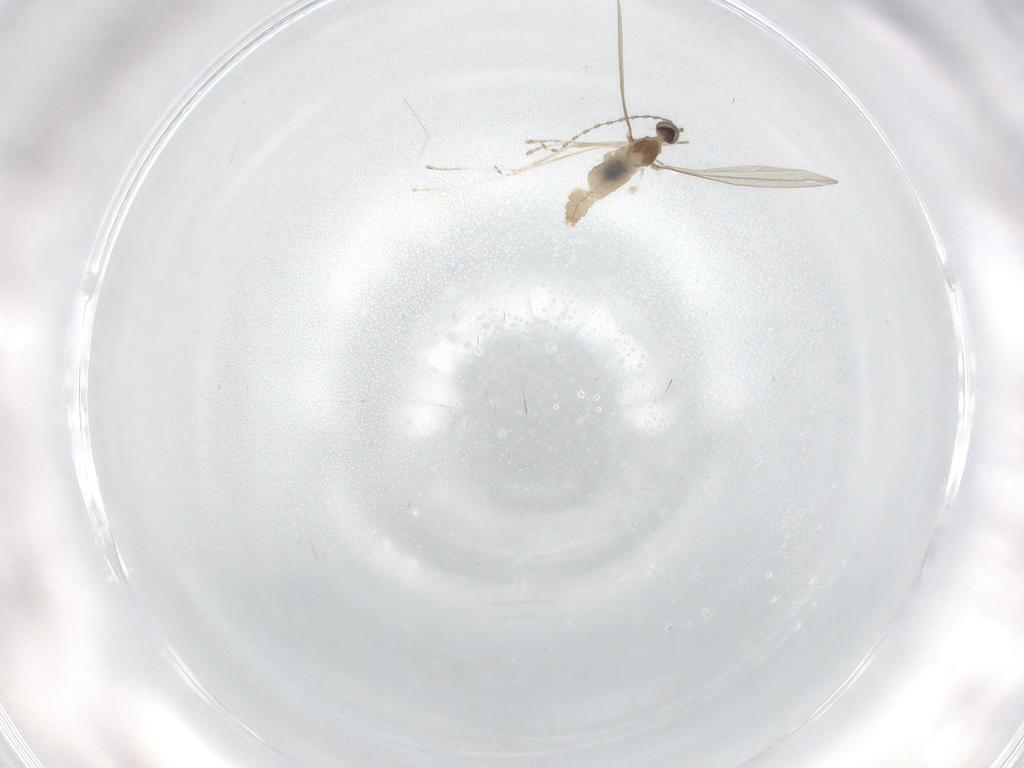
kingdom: Animalia
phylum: Arthropoda
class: Insecta
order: Diptera
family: Cecidomyiidae
